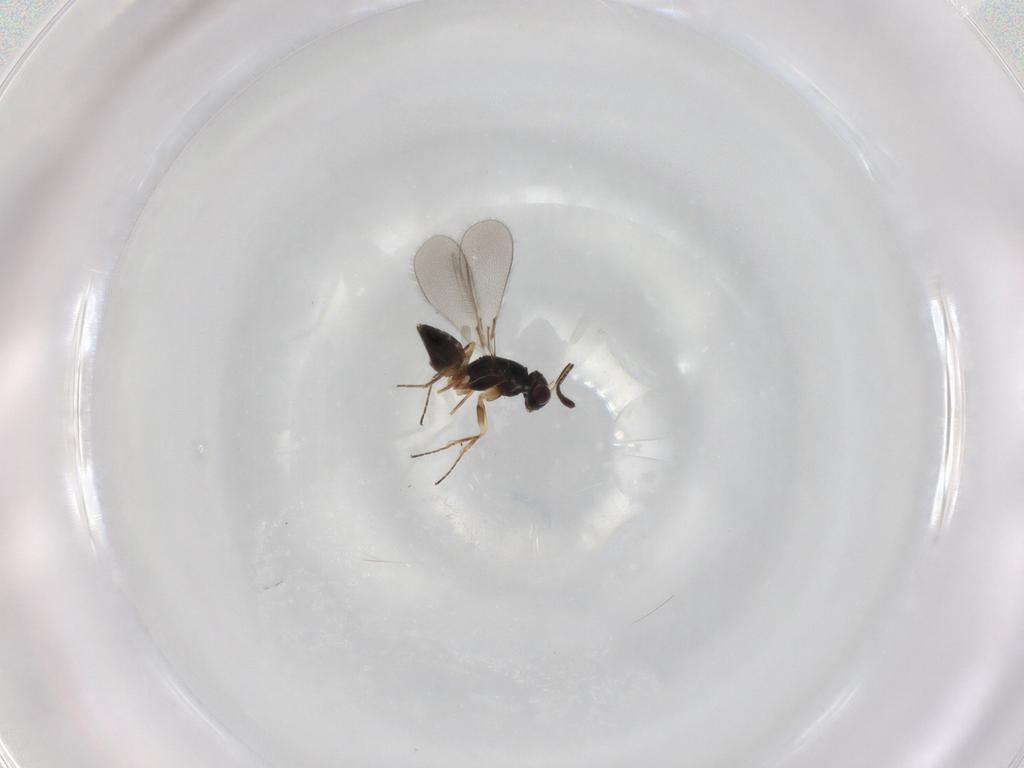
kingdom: Animalia
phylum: Arthropoda
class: Insecta
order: Hymenoptera
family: Mymaridae
